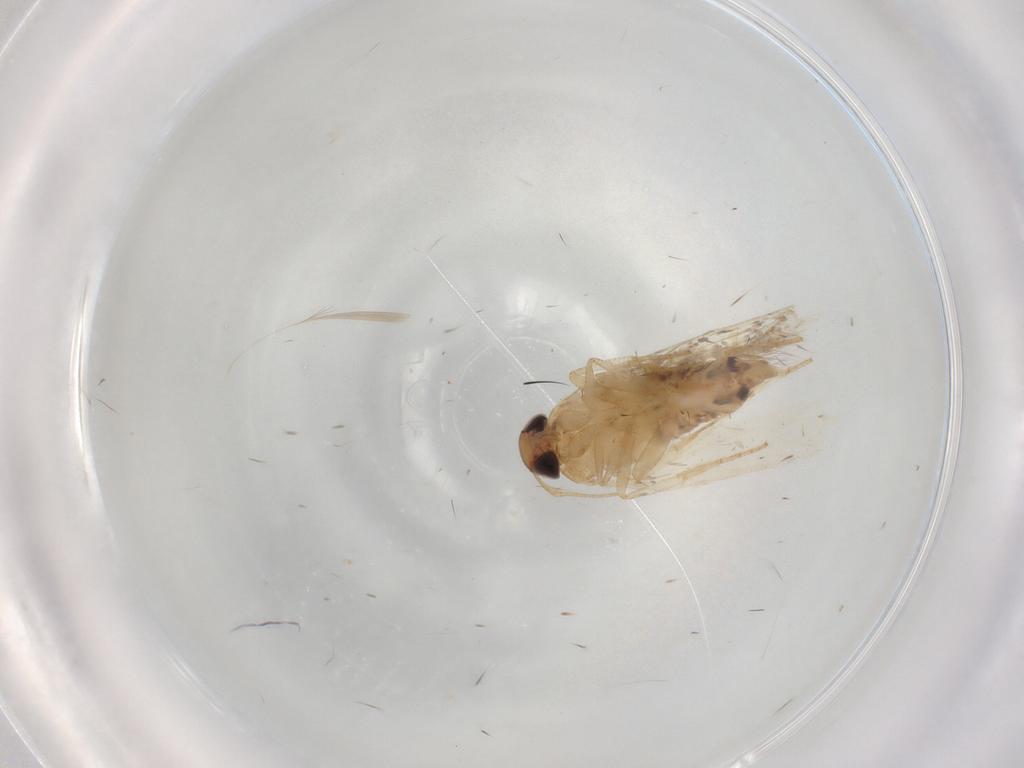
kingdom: Animalia
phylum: Arthropoda
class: Insecta
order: Lepidoptera
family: Cosmopterigidae
